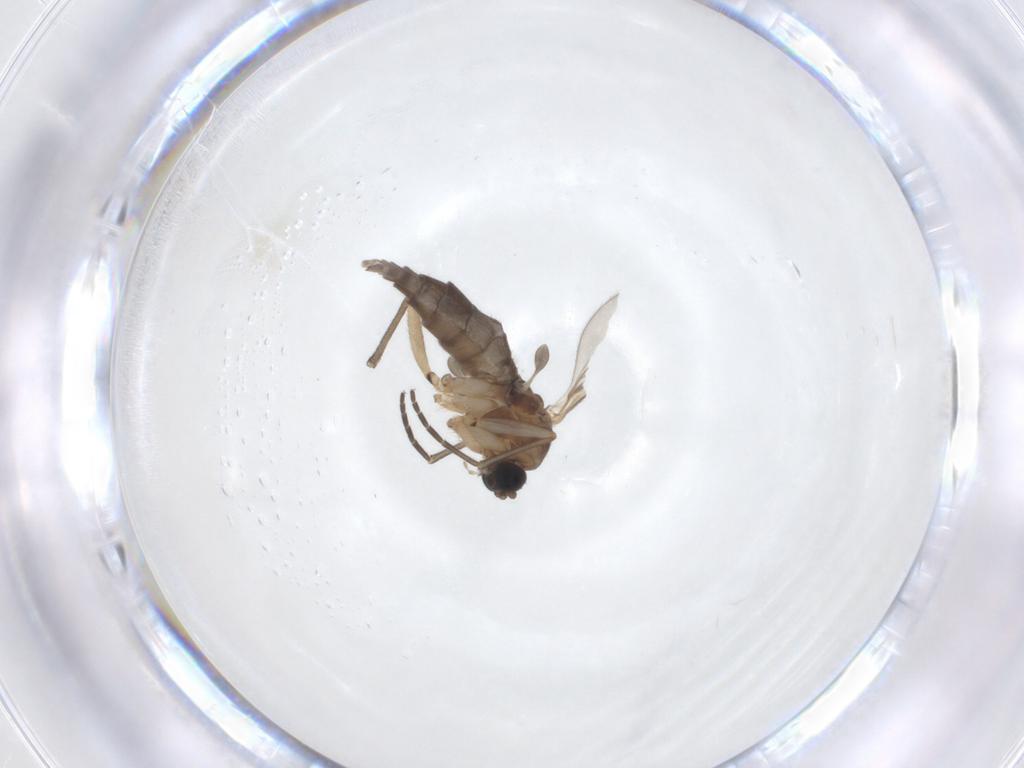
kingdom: Animalia
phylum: Arthropoda
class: Insecta
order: Diptera
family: Sciaridae
